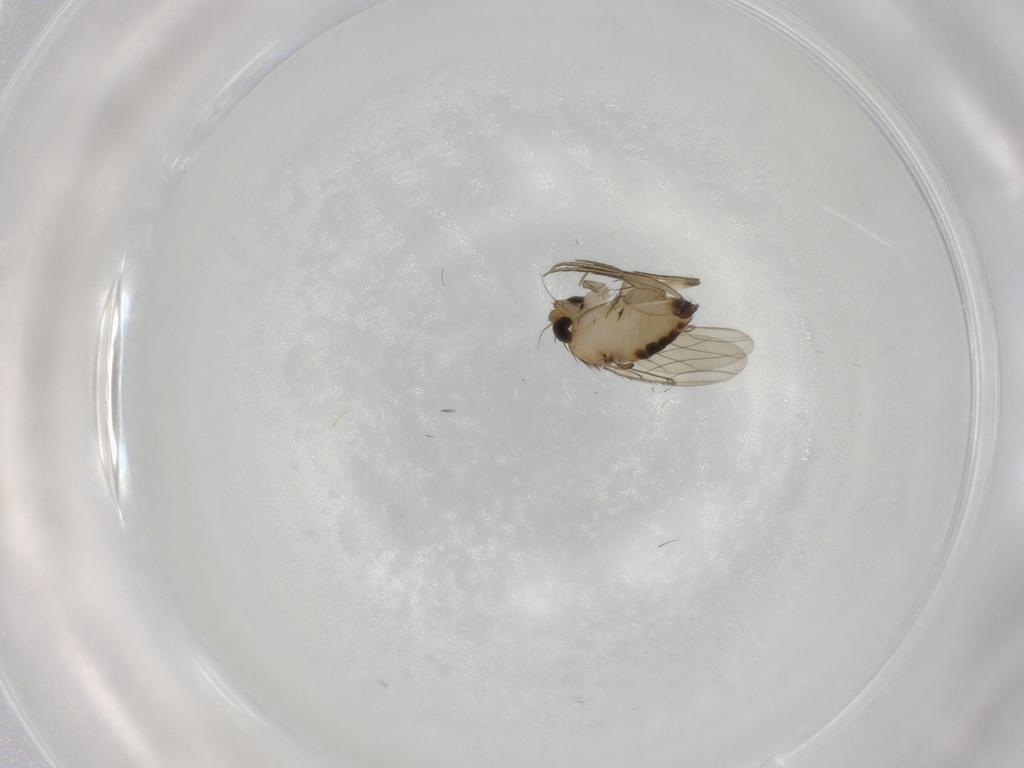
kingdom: Animalia
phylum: Arthropoda
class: Insecta
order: Diptera
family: Phoridae
